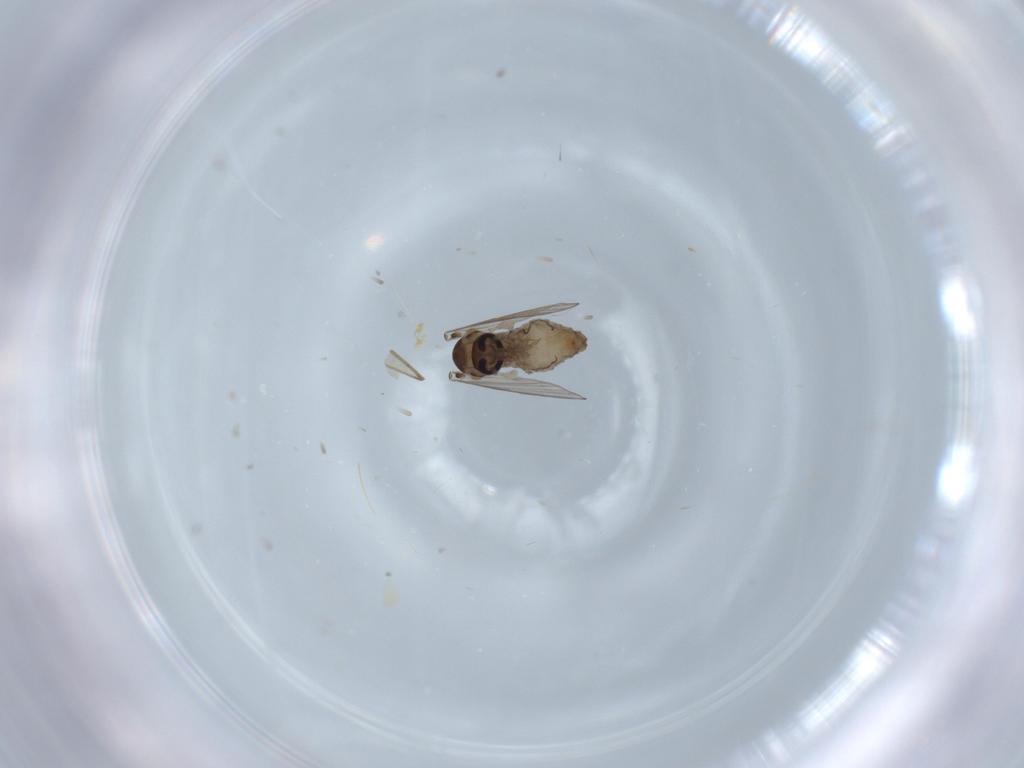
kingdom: Animalia
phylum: Arthropoda
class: Insecta
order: Diptera
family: Psychodidae
